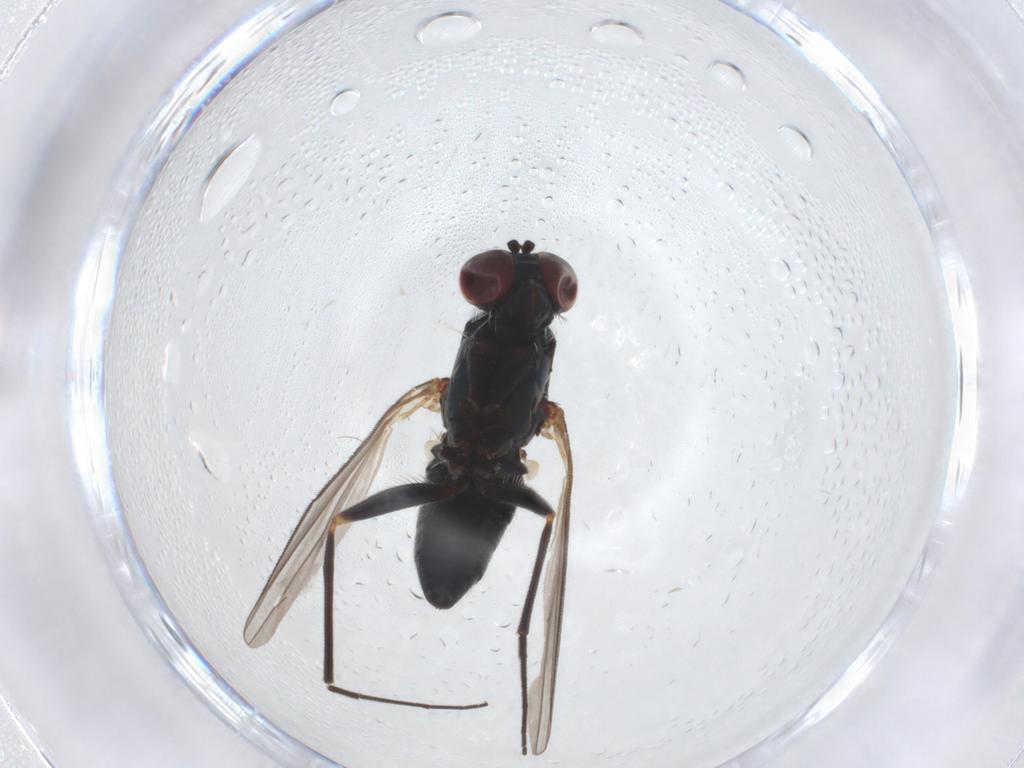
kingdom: Animalia
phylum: Arthropoda
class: Insecta
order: Diptera
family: Dolichopodidae
